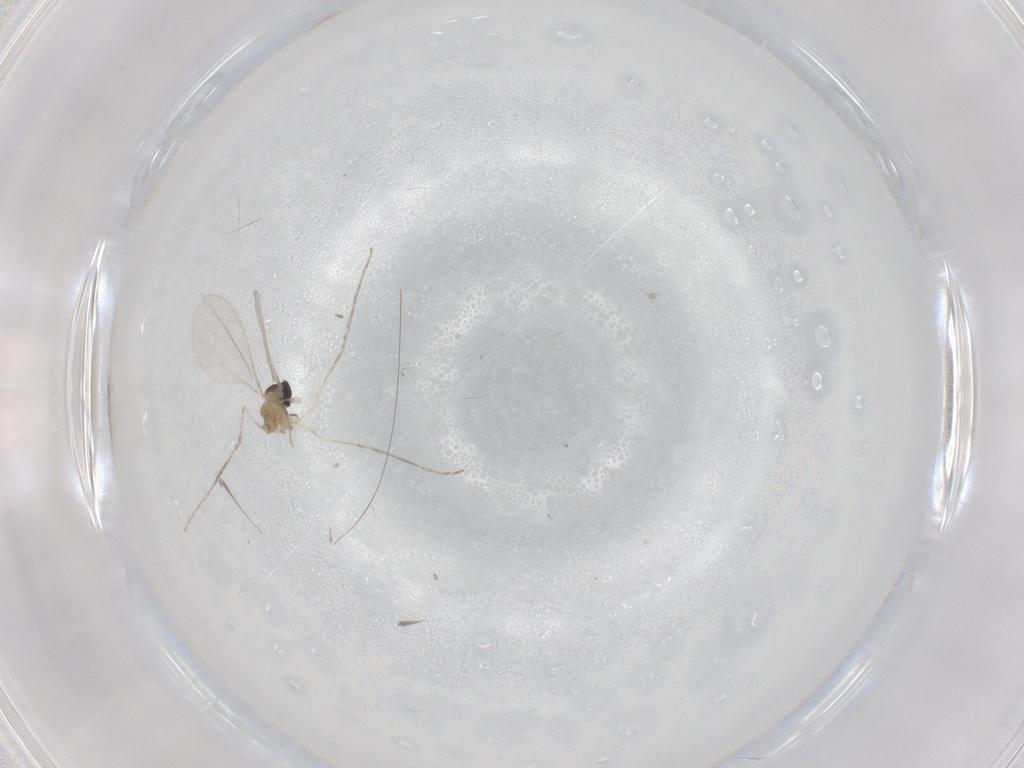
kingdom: Animalia
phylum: Arthropoda
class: Insecta
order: Diptera
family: Cecidomyiidae
